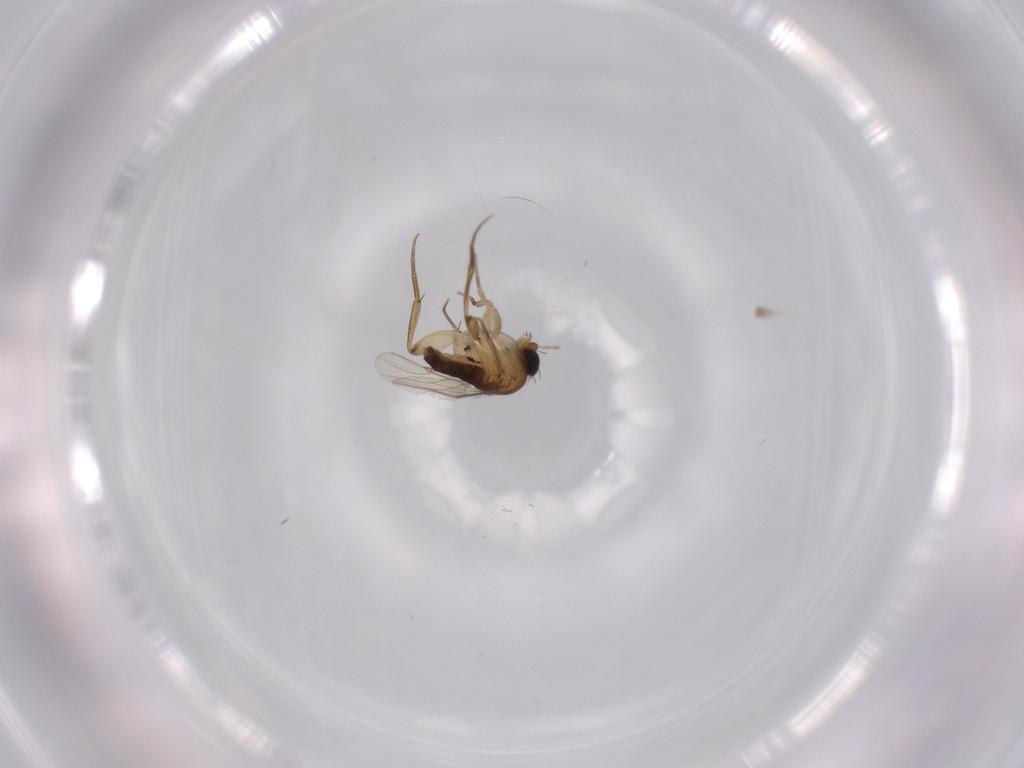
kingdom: Animalia
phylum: Arthropoda
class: Insecta
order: Diptera
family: Phoridae
